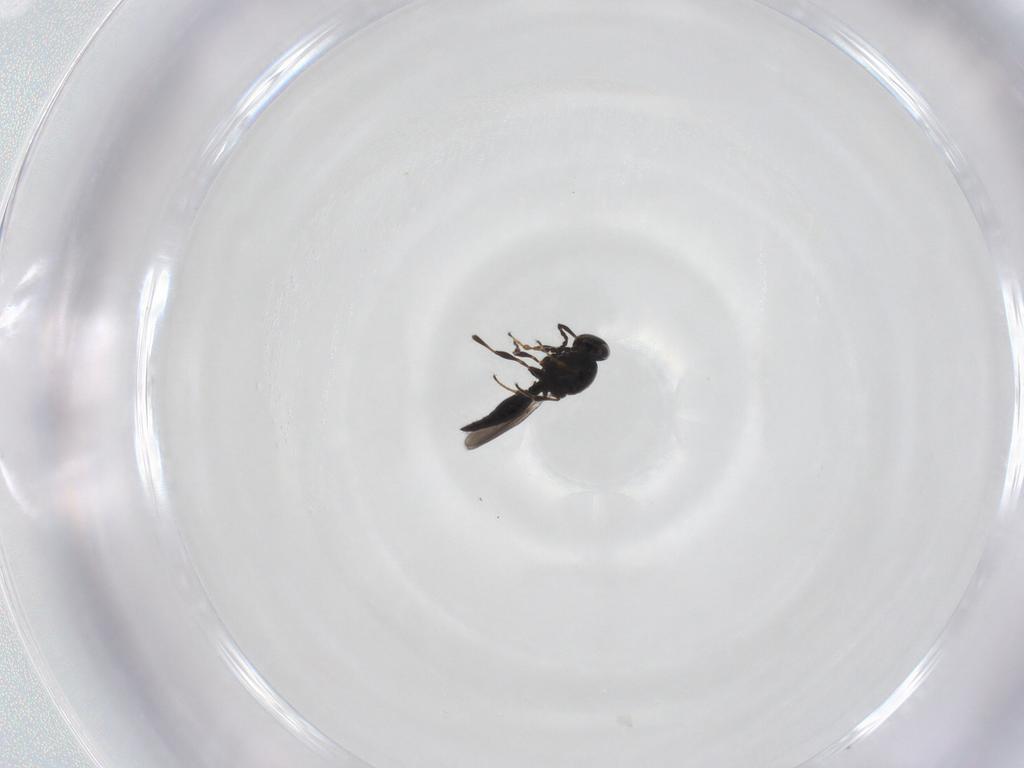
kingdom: Animalia
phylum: Arthropoda
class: Insecta
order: Hymenoptera
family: Platygastridae
